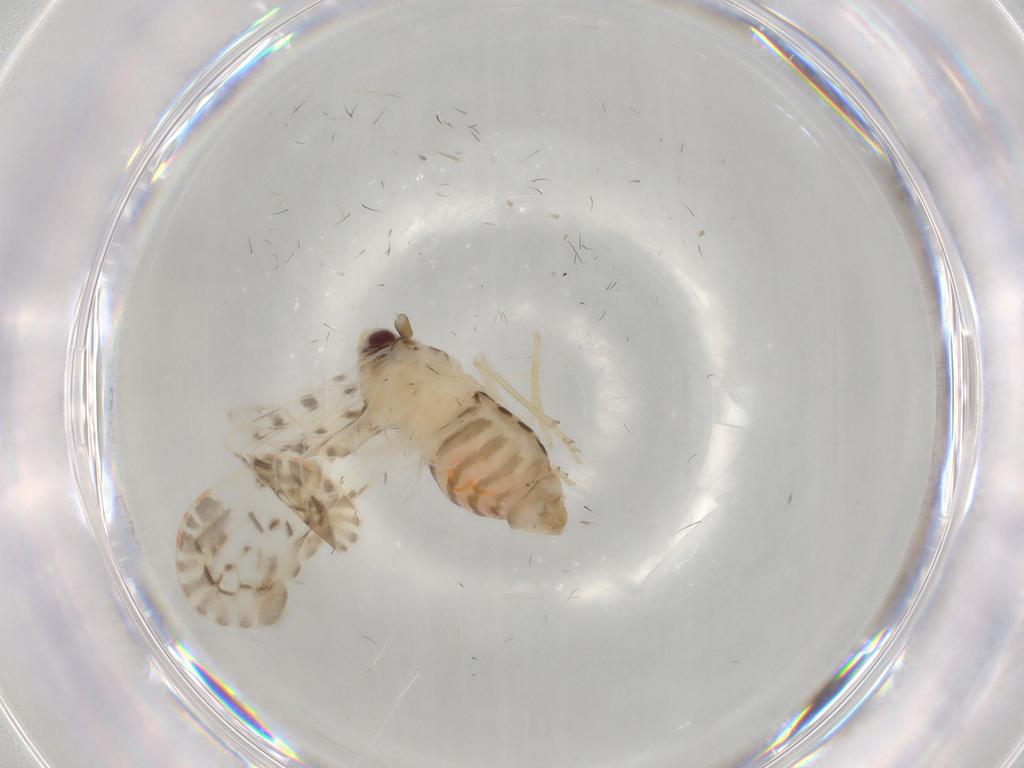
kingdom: Animalia
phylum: Arthropoda
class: Insecta
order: Hemiptera
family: Derbidae
